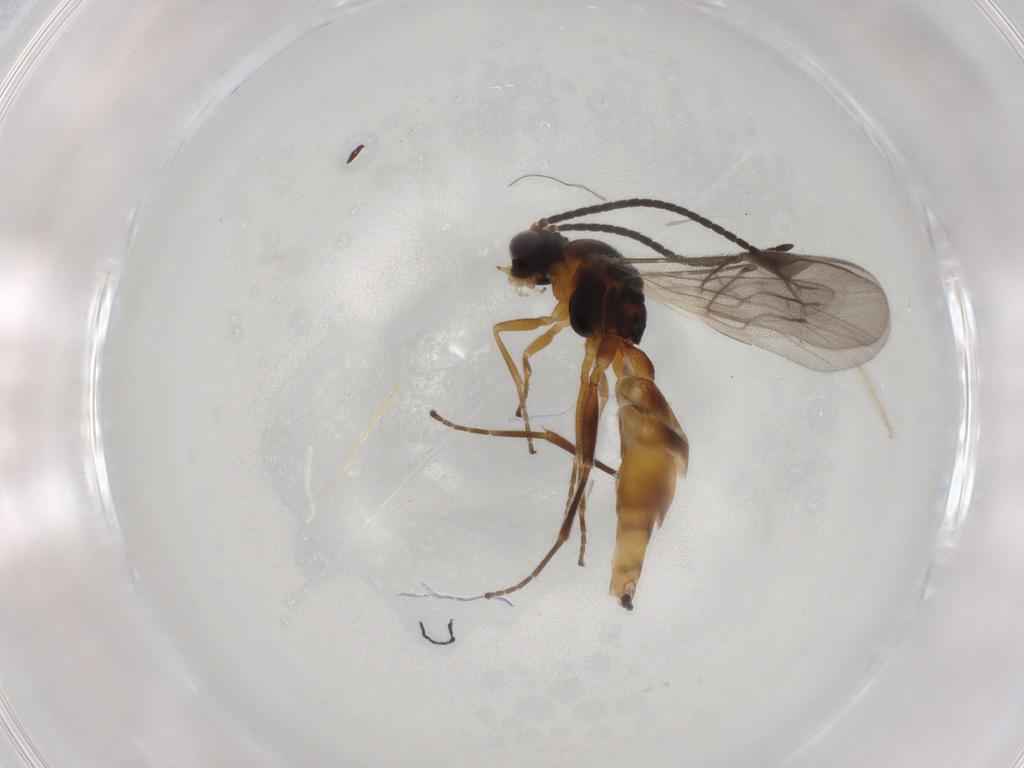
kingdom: Animalia
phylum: Arthropoda
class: Insecta
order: Hymenoptera
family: Braconidae
